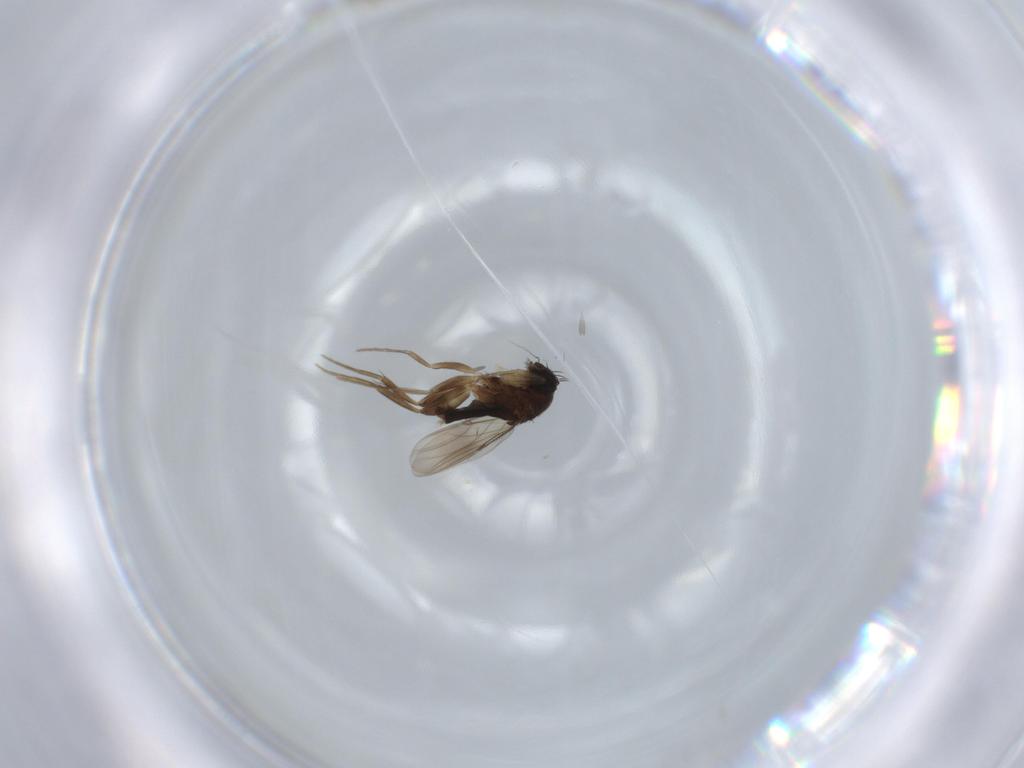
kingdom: Animalia
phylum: Arthropoda
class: Insecta
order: Diptera
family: Phoridae
